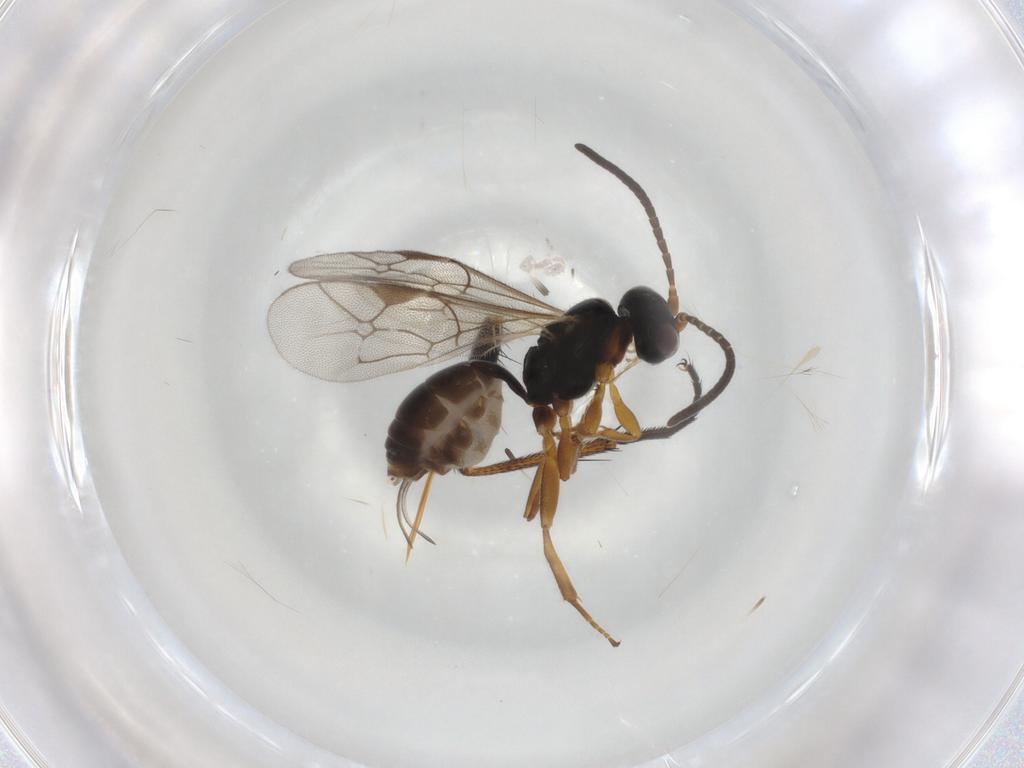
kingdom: Animalia
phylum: Arthropoda
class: Insecta
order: Hymenoptera
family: Ichneumonidae
